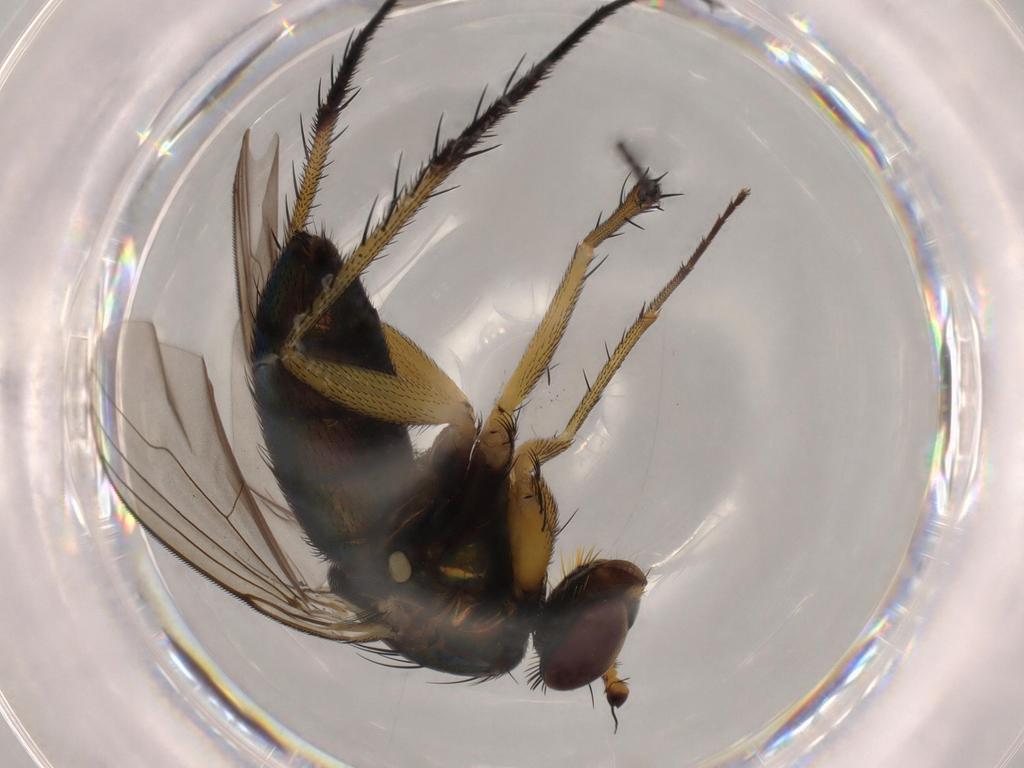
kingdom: Animalia
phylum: Arthropoda
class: Insecta
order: Diptera
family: Dolichopodidae
